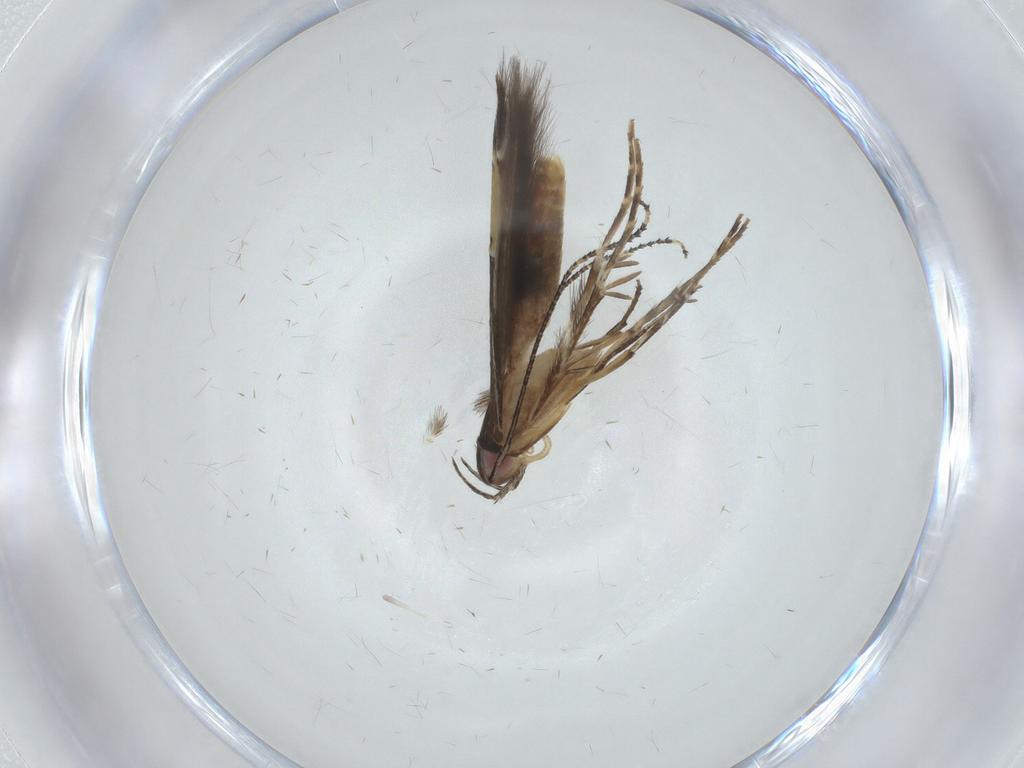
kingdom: Animalia
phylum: Arthropoda
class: Insecta
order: Lepidoptera
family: Cosmopterigidae
